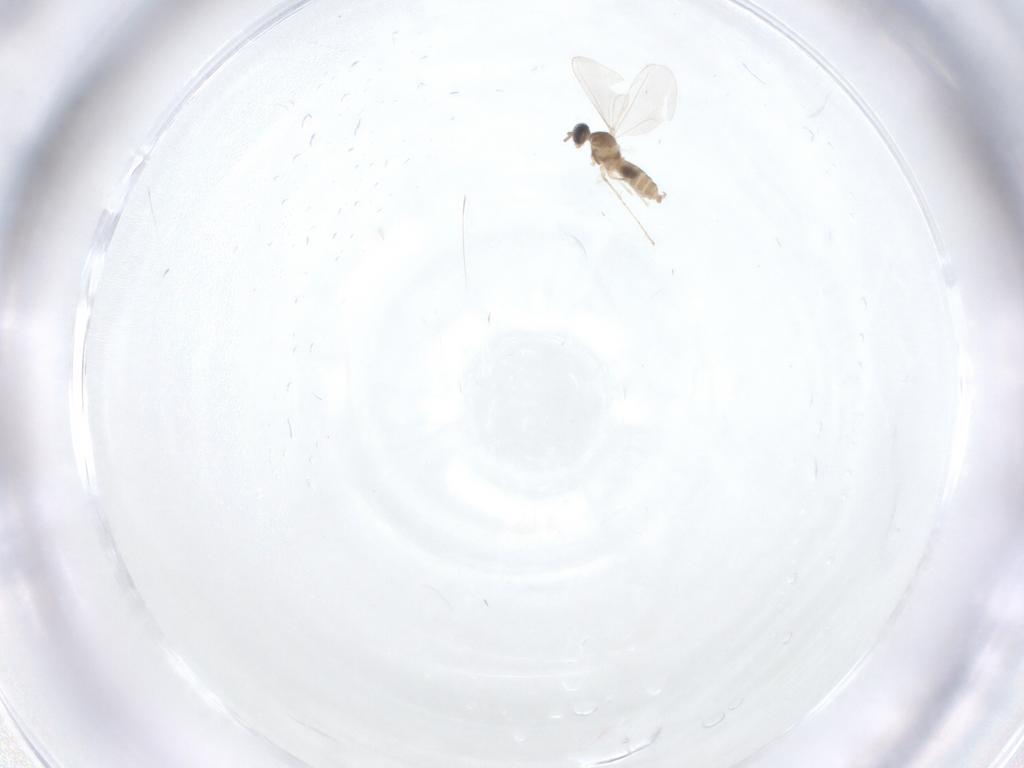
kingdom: Animalia
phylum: Arthropoda
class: Insecta
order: Diptera
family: Cecidomyiidae
